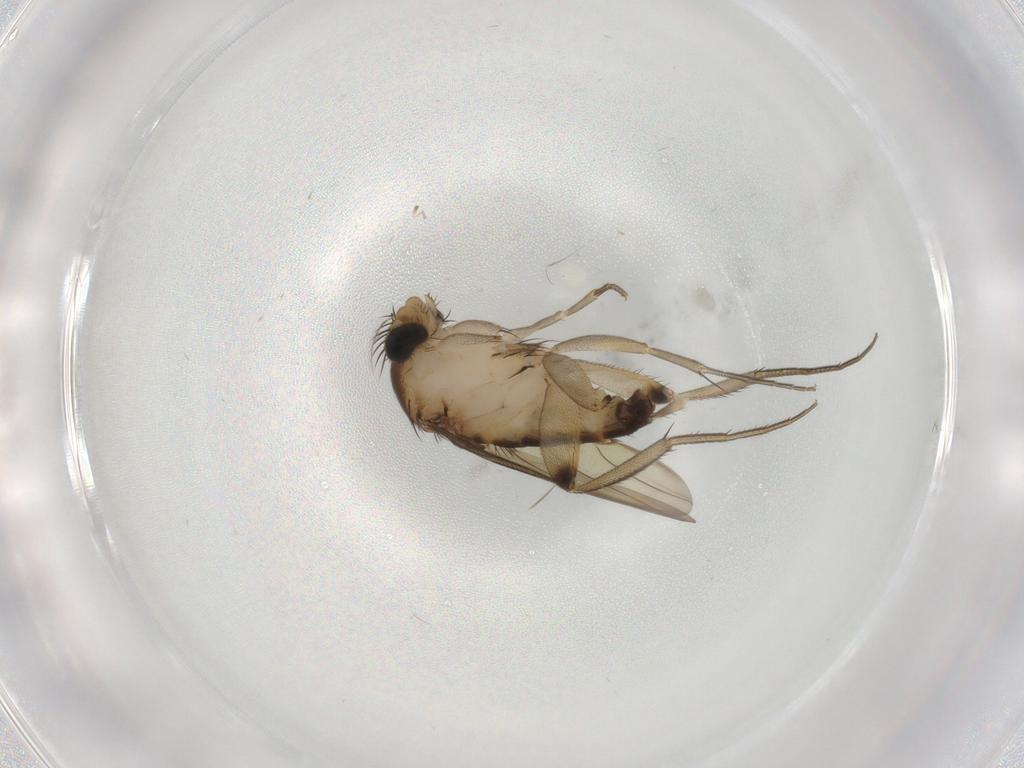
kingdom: Animalia
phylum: Arthropoda
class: Insecta
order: Diptera
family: Phoridae
